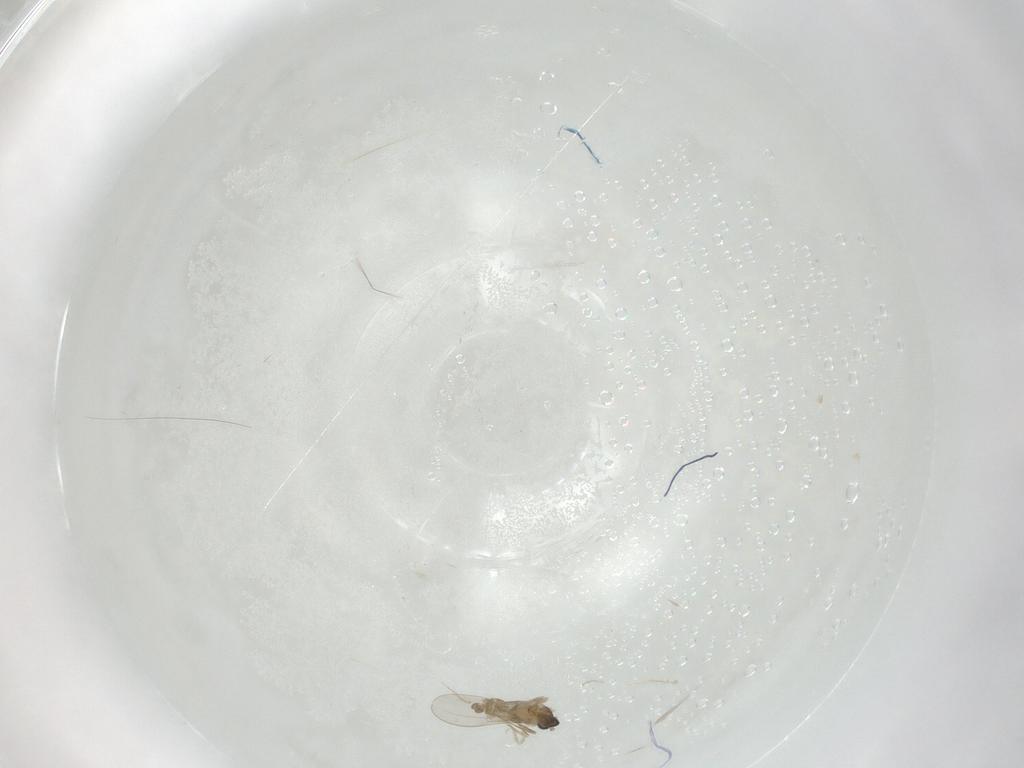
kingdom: Animalia
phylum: Arthropoda
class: Insecta
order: Diptera
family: Cecidomyiidae
